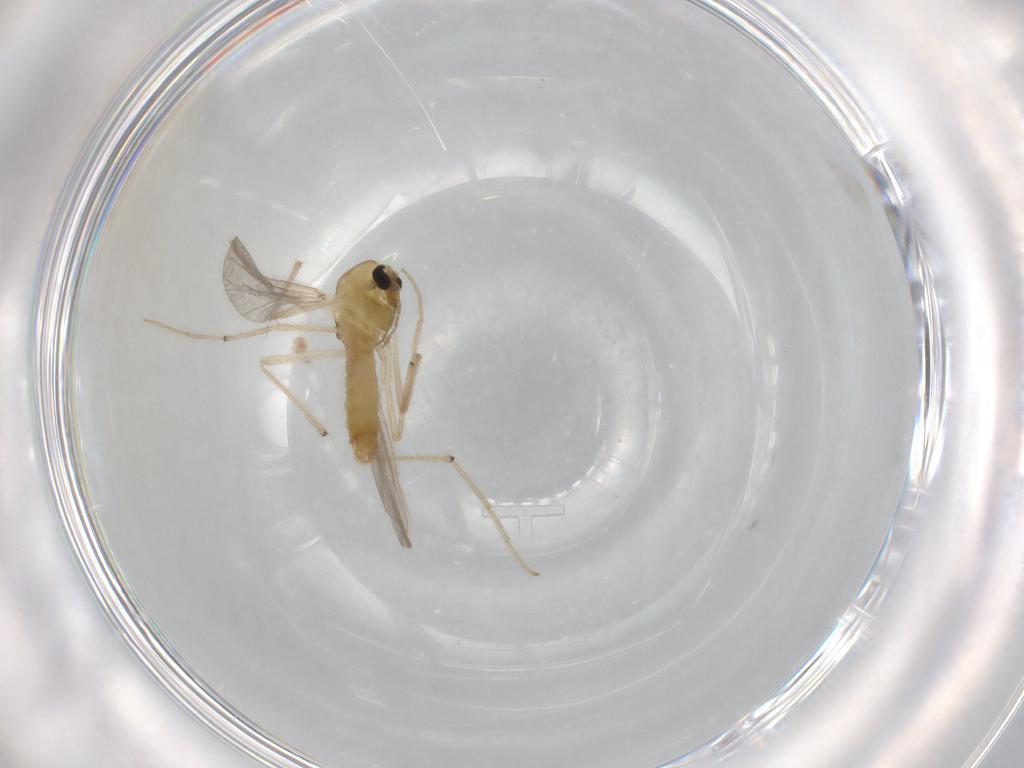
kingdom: Animalia
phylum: Arthropoda
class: Insecta
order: Diptera
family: Chironomidae
